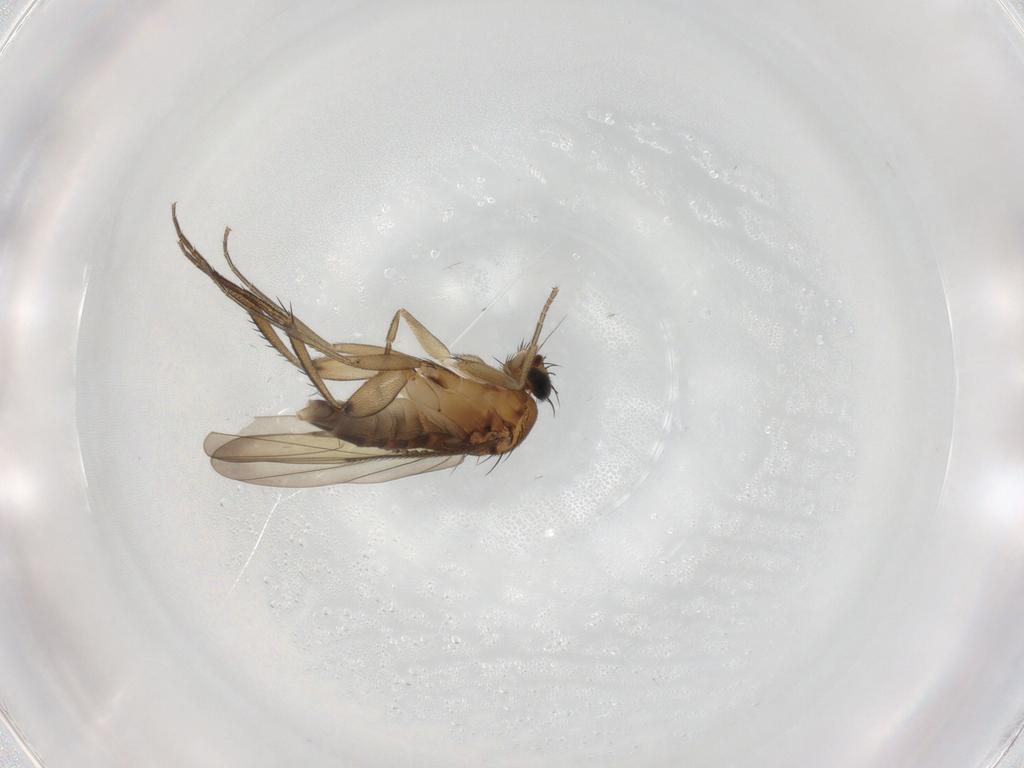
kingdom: Animalia
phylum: Arthropoda
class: Insecta
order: Diptera
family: Phoridae
